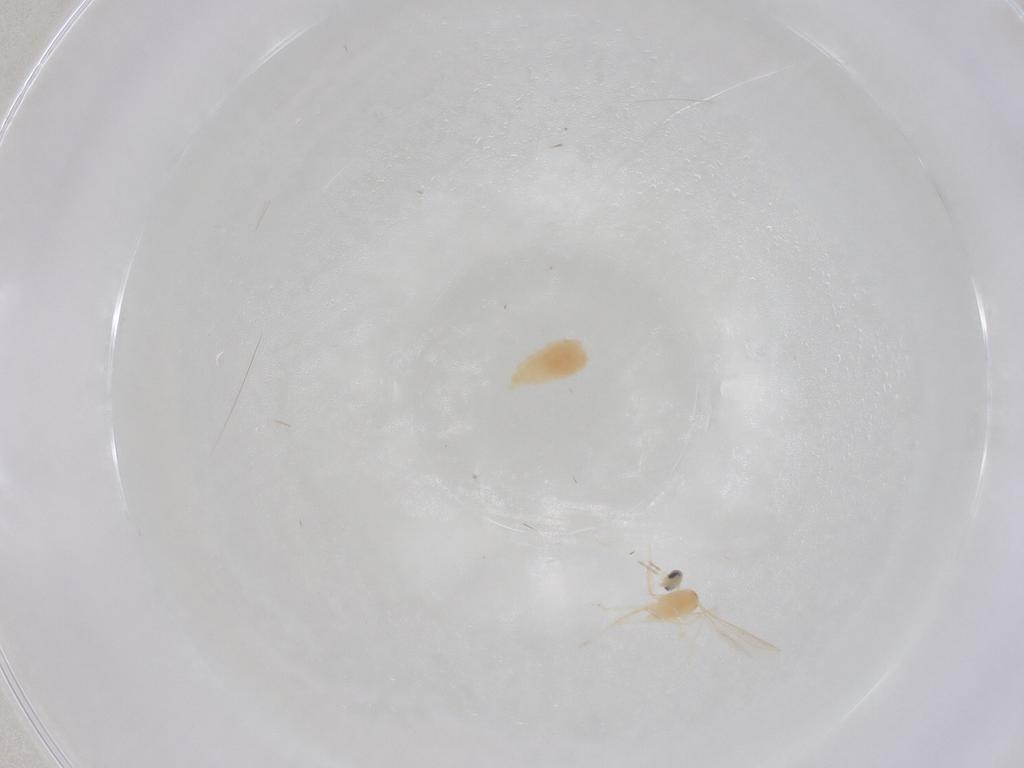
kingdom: Animalia
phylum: Arthropoda
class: Insecta
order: Diptera
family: Cecidomyiidae
